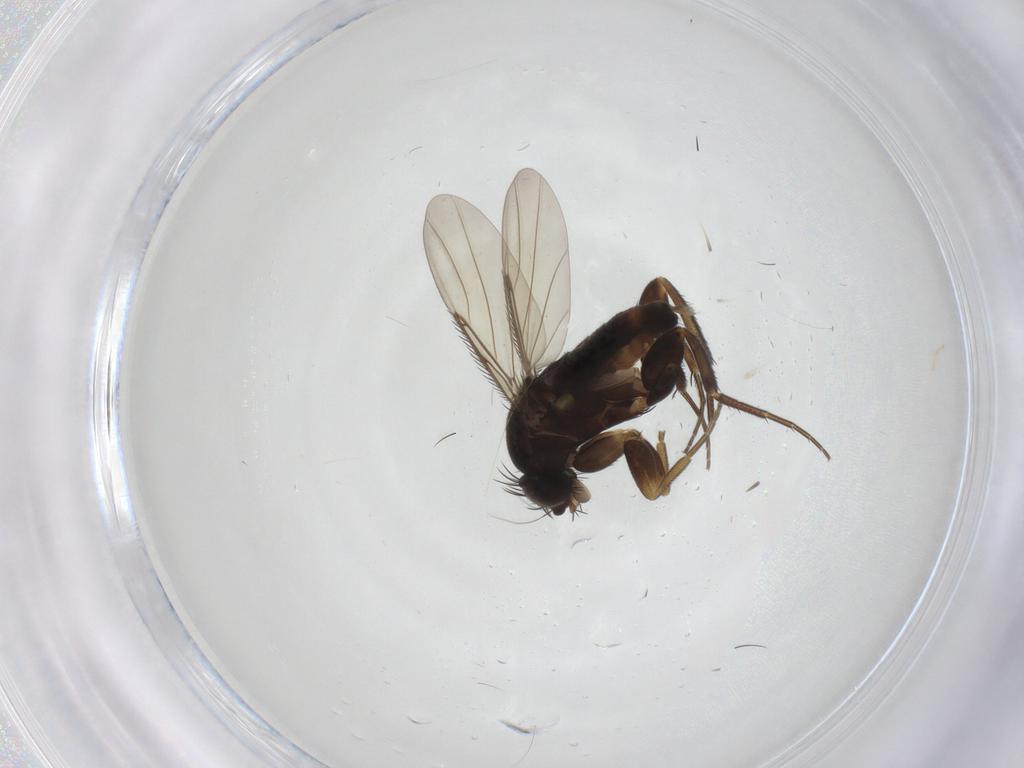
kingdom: Animalia
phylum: Arthropoda
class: Insecta
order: Diptera
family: Phoridae
